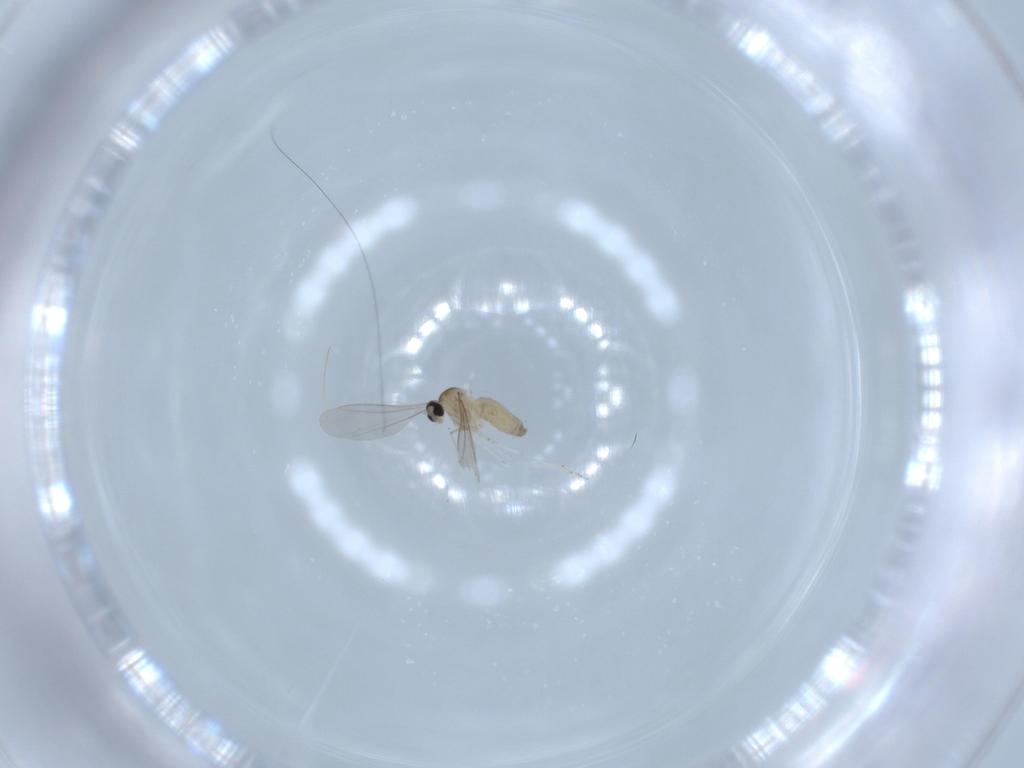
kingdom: Animalia
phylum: Arthropoda
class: Insecta
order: Diptera
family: Cecidomyiidae
